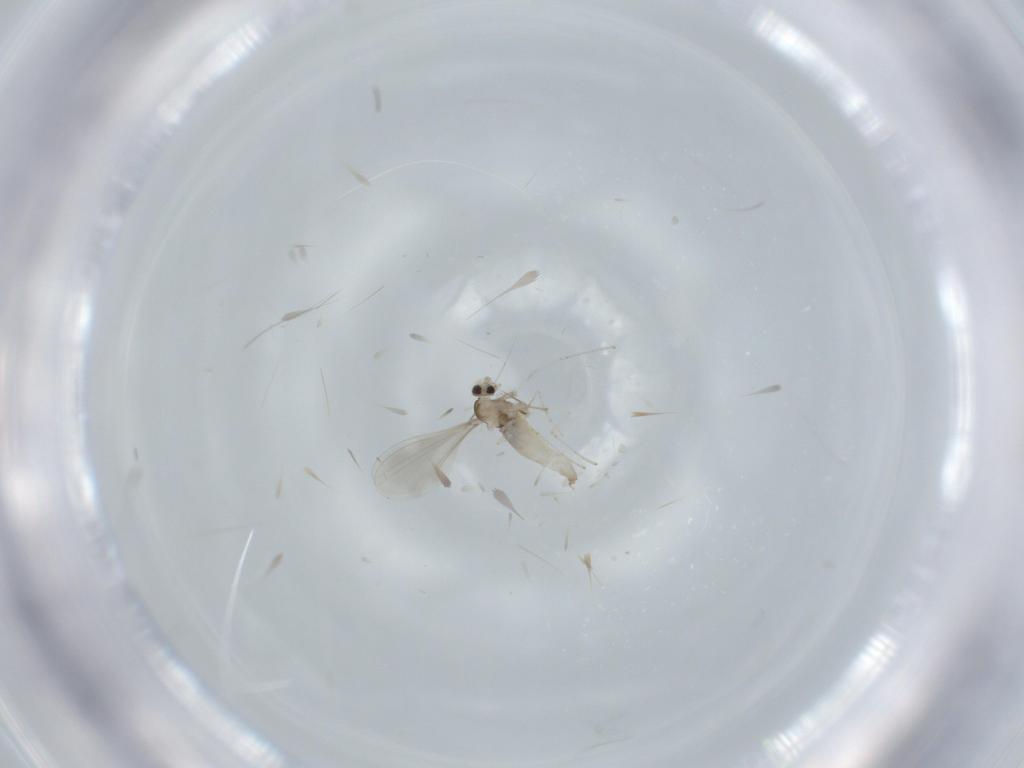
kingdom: Animalia
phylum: Arthropoda
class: Insecta
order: Diptera
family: Cecidomyiidae
